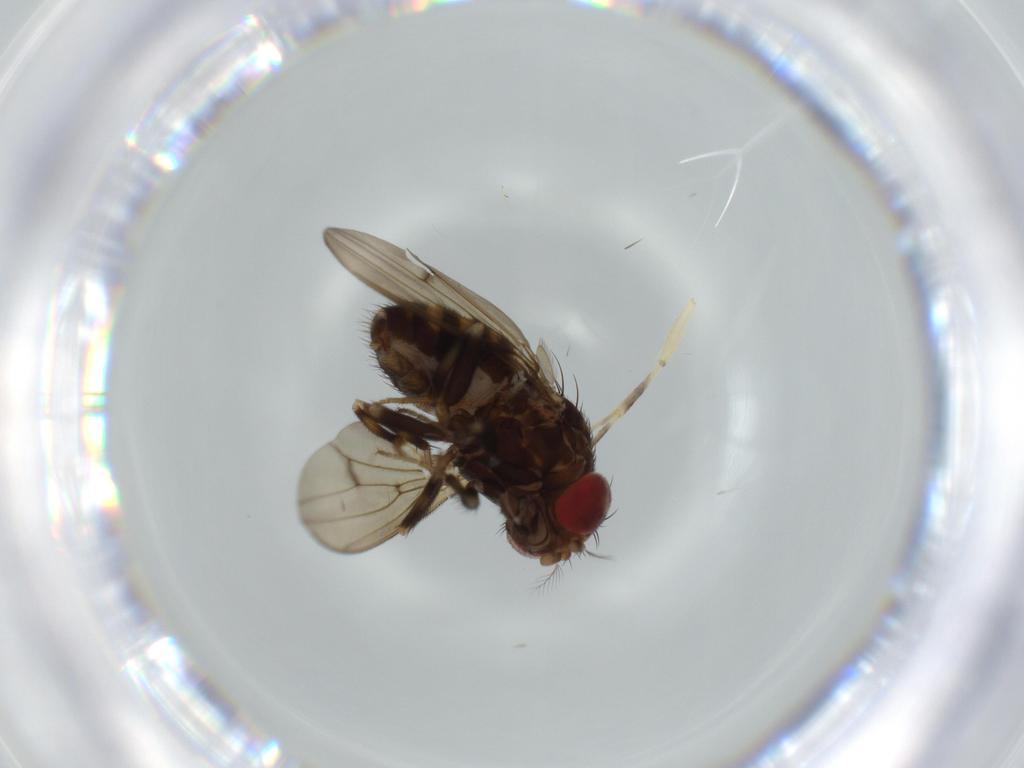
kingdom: Animalia
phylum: Arthropoda
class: Insecta
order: Diptera
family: Drosophilidae
